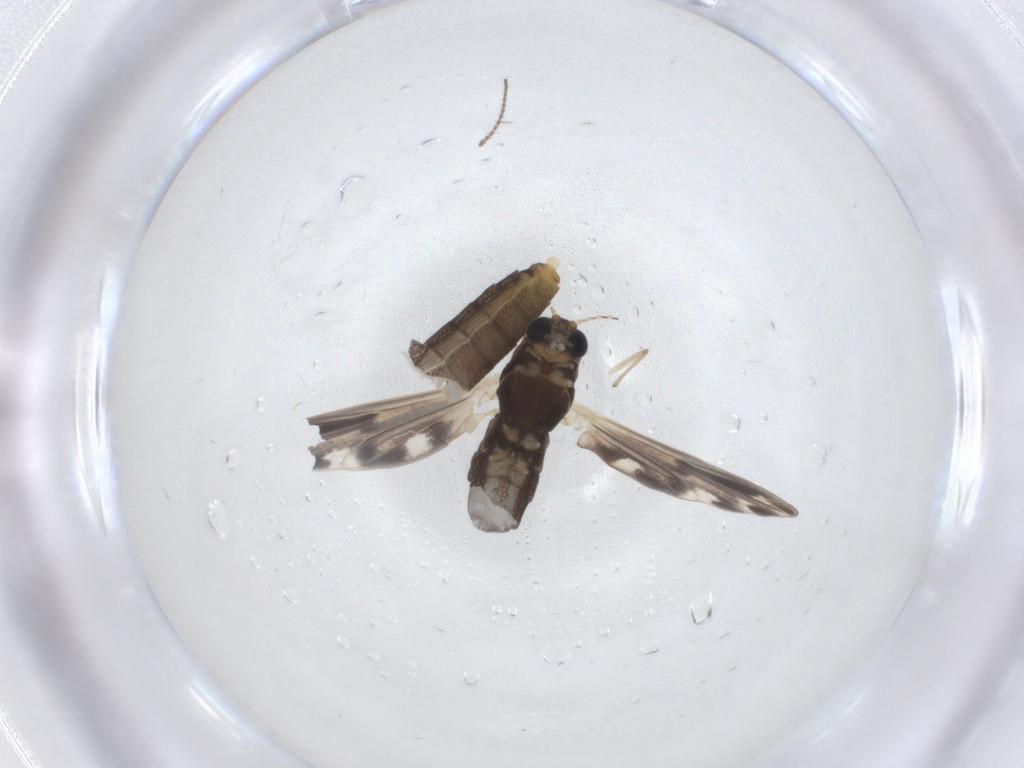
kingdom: Animalia
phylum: Arthropoda
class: Insecta
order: Diptera
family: Chironomidae
